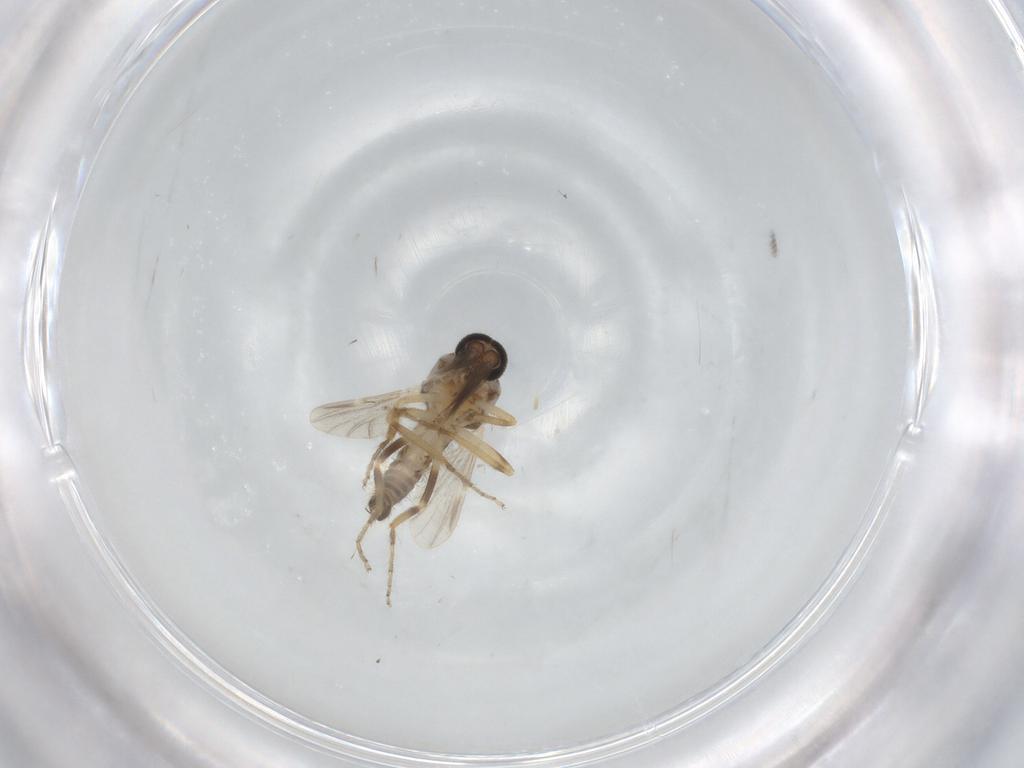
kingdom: Animalia
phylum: Arthropoda
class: Insecta
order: Diptera
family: Ceratopogonidae
